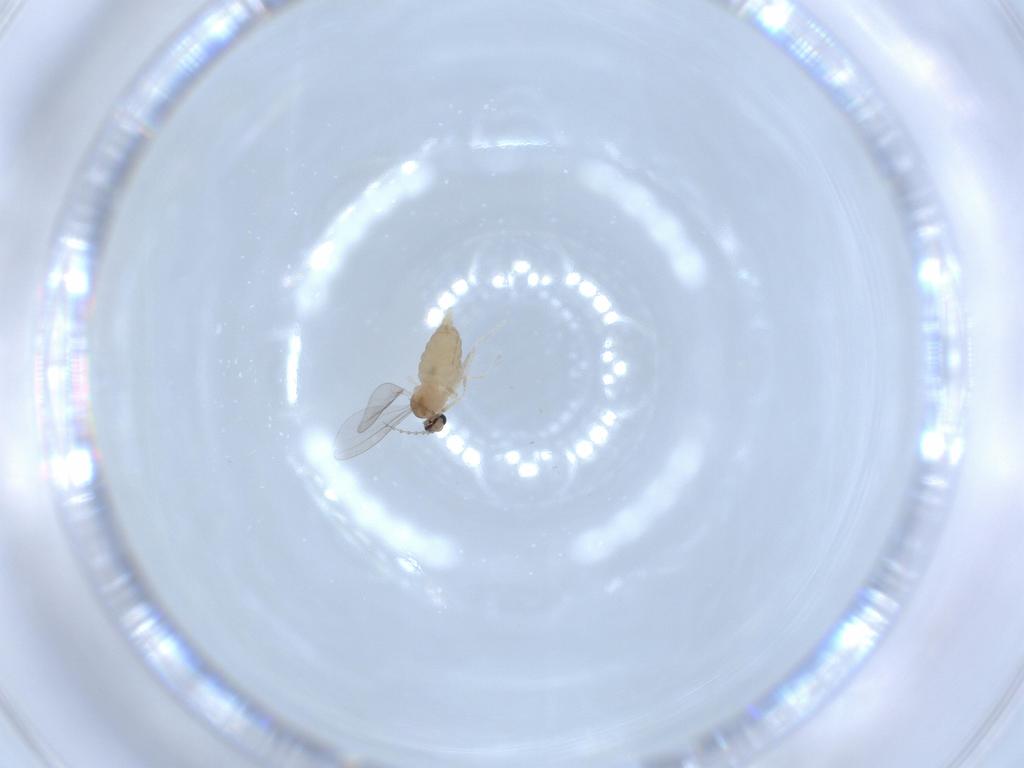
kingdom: Animalia
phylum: Arthropoda
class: Insecta
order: Diptera
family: Cecidomyiidae
